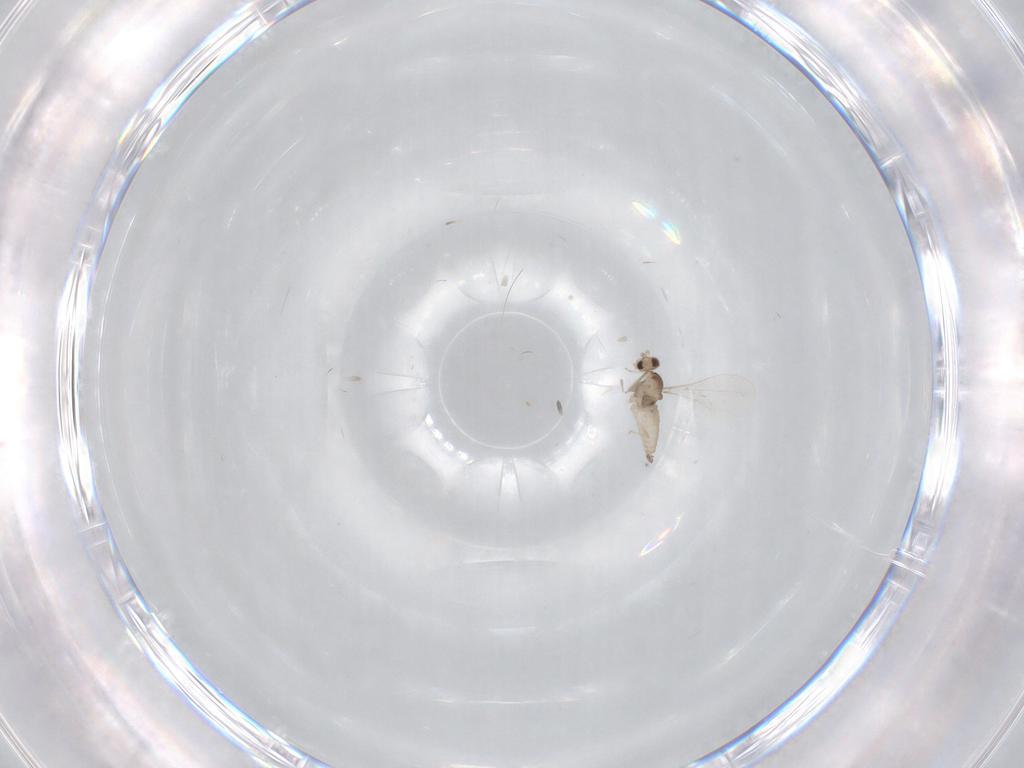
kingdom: Animalia
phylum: Arthropoda
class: Insecta
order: Diptera
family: Cecidomyiidae
